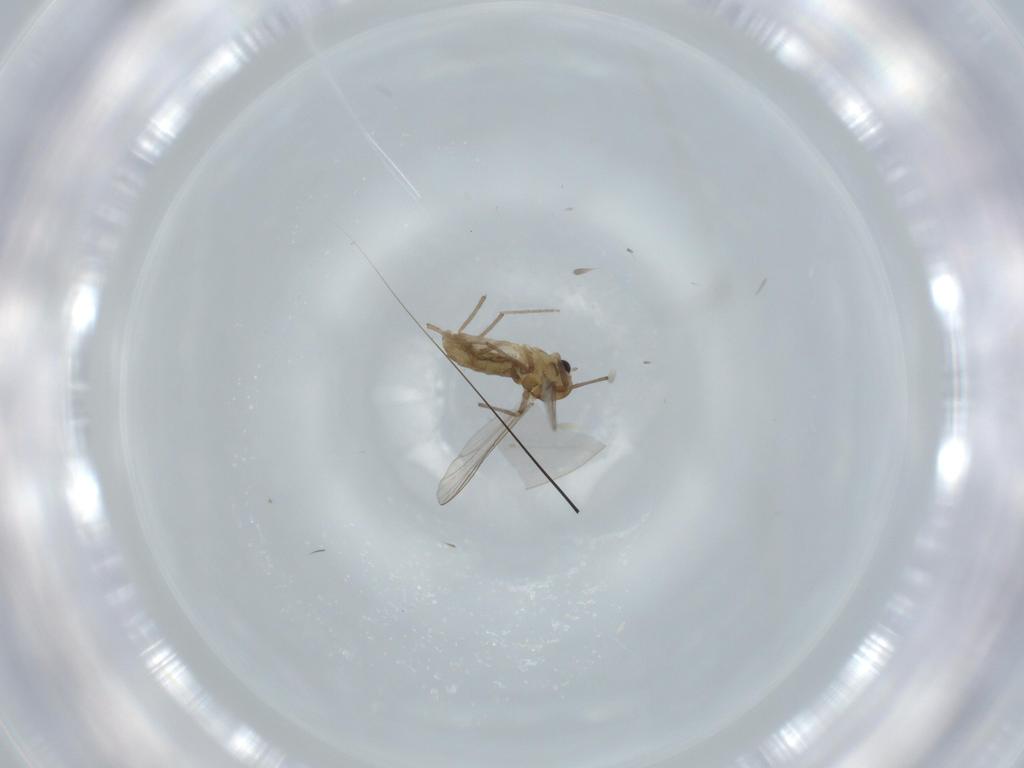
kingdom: Animalia
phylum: Arthropoda
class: Insecta
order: Diptera
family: Chironomidae
